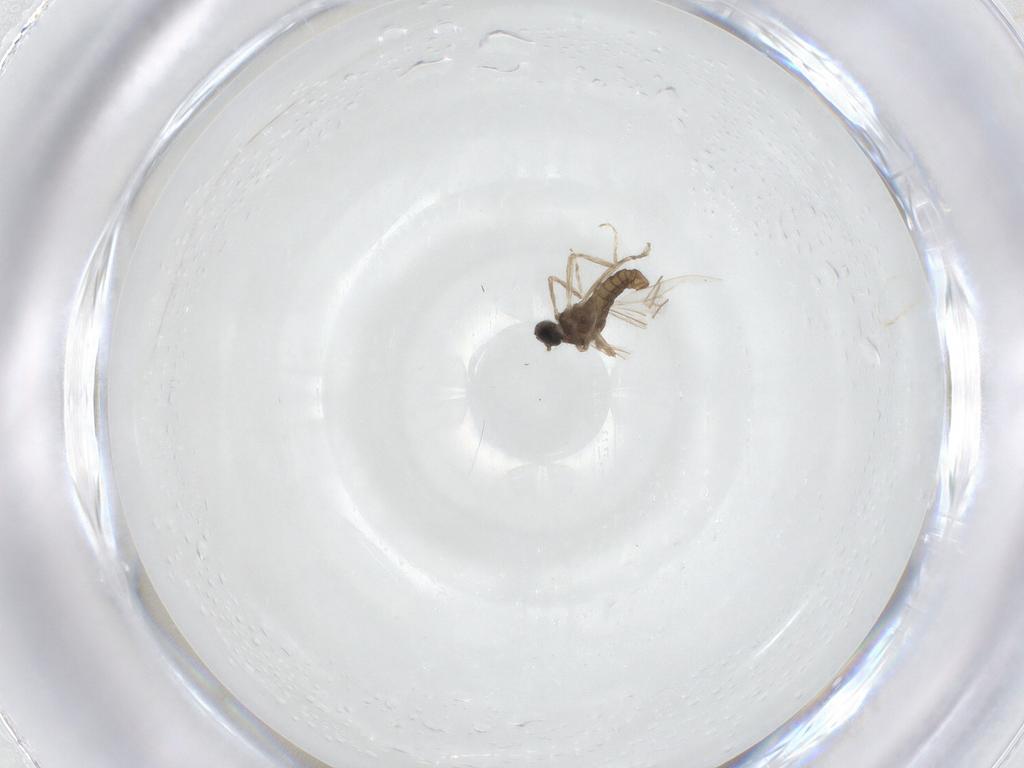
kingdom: Animalia
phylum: Arthropoda
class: Insecta
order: Diptera
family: Cecidomyiidae
